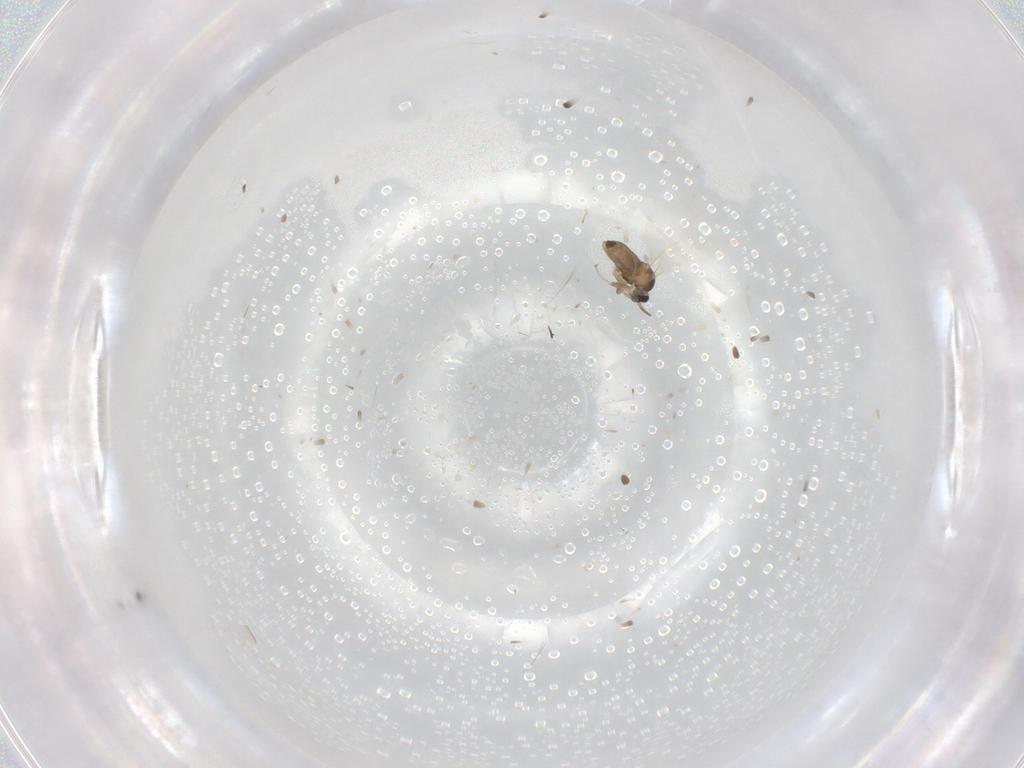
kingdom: Animalia
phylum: Arthropoda
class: Insecta
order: Diptera
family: Cecidomyiidae
